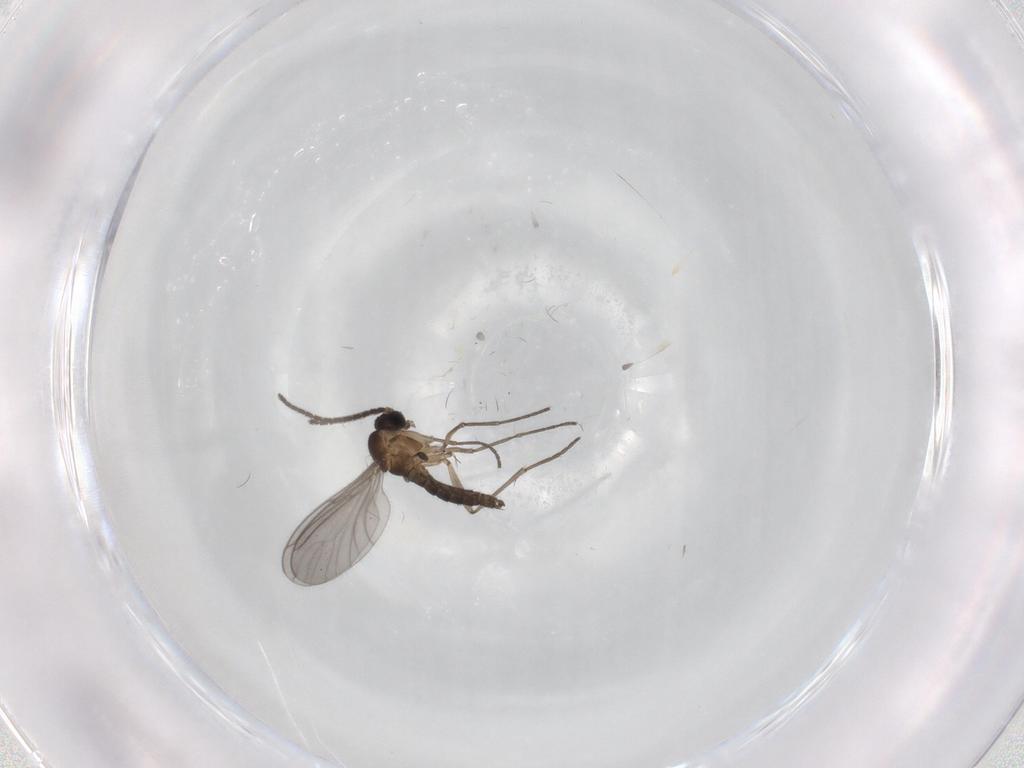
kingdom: Animalia
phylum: Arthropoda
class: Insecta
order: Diptera
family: Sciaridae
